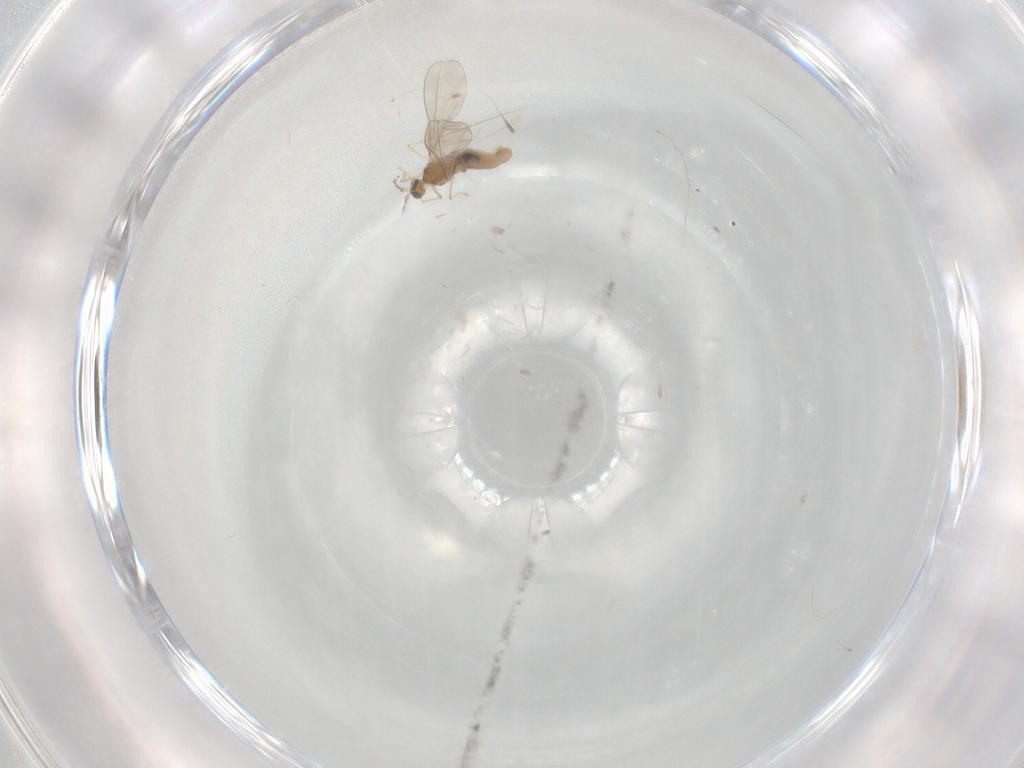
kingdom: Animalia
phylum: Arthropoda
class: Insecta
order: Diptera
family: Cecidomyiidae
